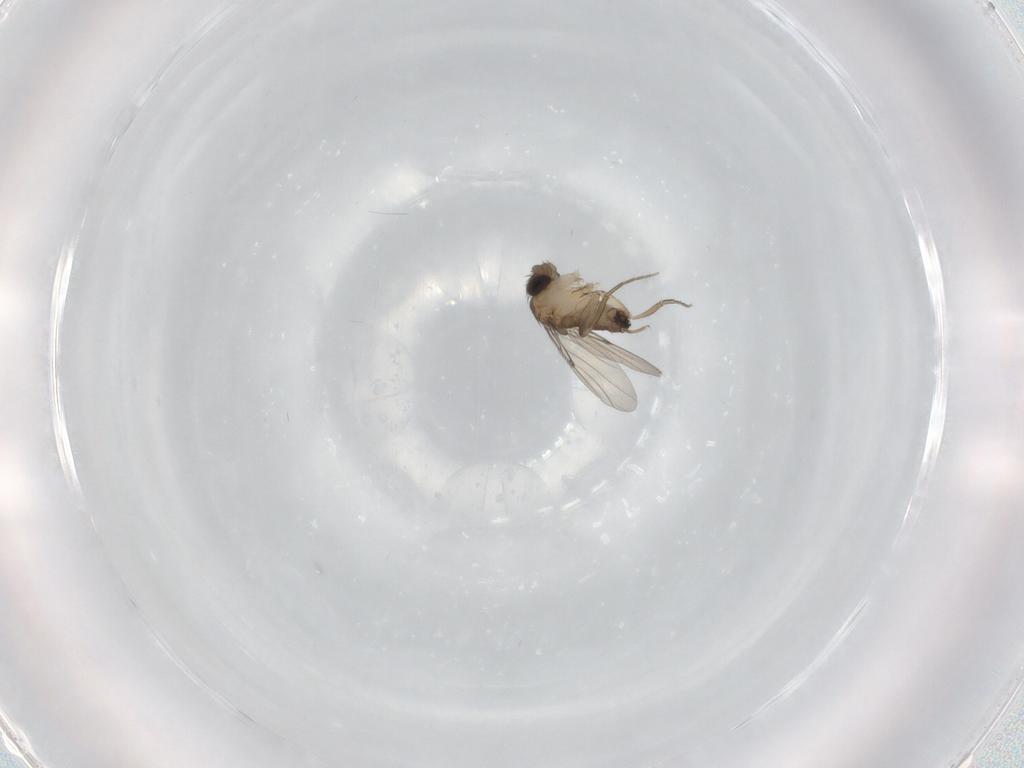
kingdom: Animalia
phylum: Arthropoda
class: Insecta
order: Diptera
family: Phoridae
